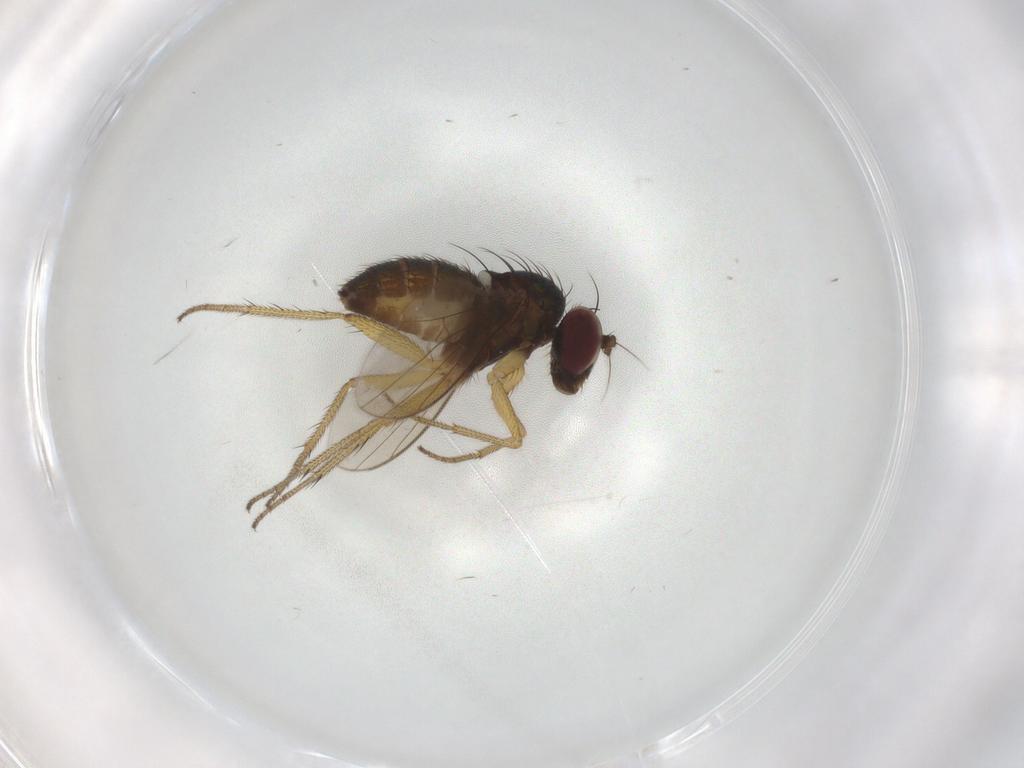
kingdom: Animalia
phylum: Arthropoda
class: Insecta
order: Diptera
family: Dolichopodidae
